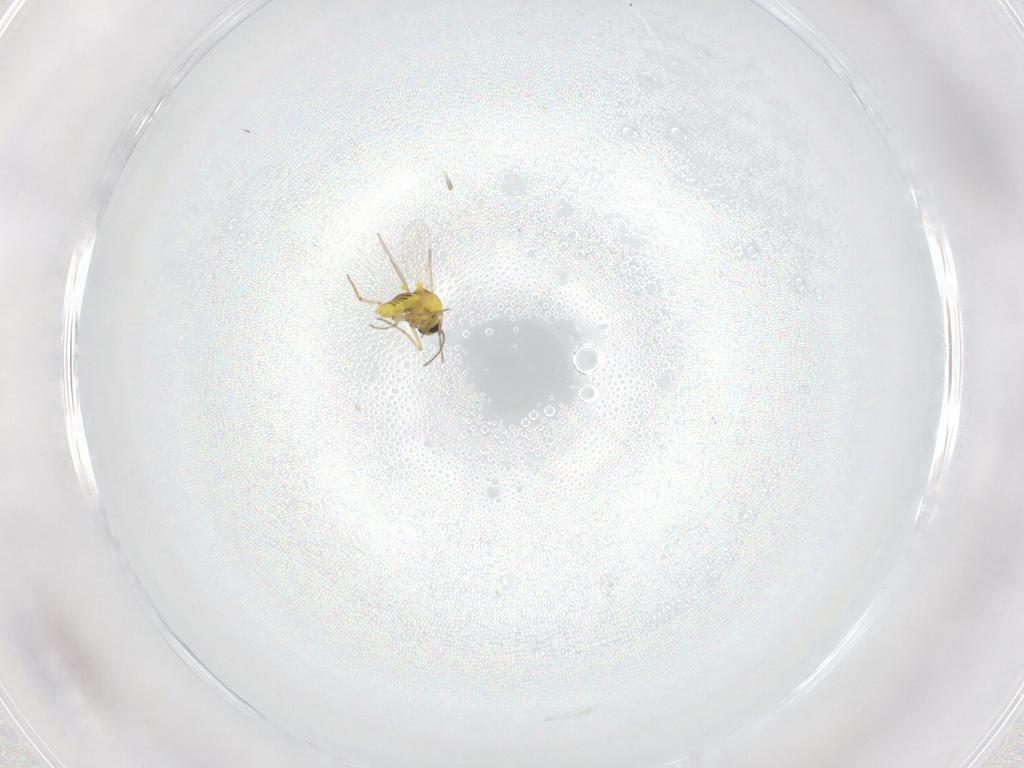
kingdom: Animalia
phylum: Arthropoda
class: Insecta
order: Diptera
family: Ceratopogonidae
